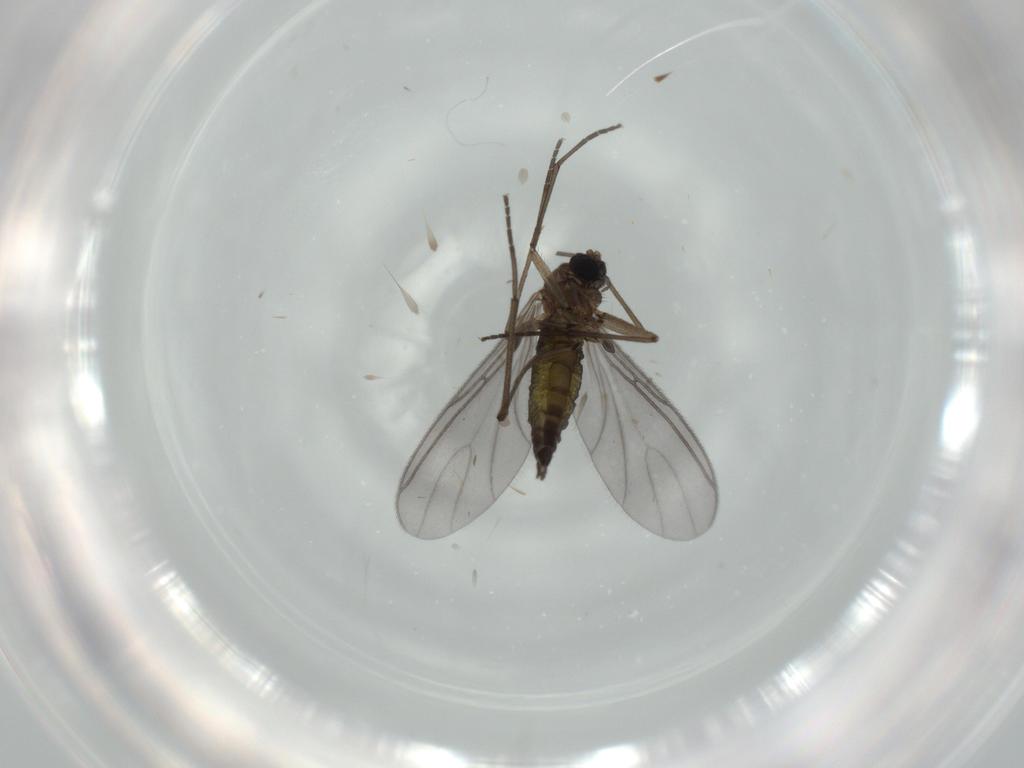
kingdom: Animalia
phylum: Arthropoda
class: Insecta
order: Diptera
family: Sciaridae
